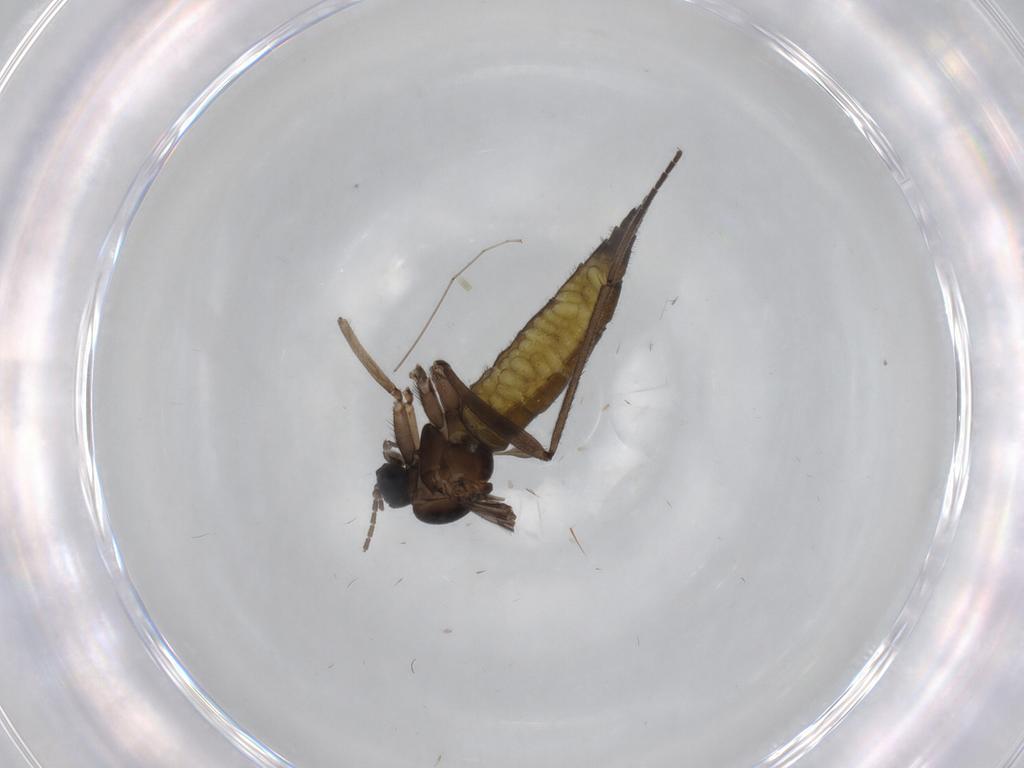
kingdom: Animalia
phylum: Arthropoda
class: Insecta
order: Diptera
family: Sciaridae
